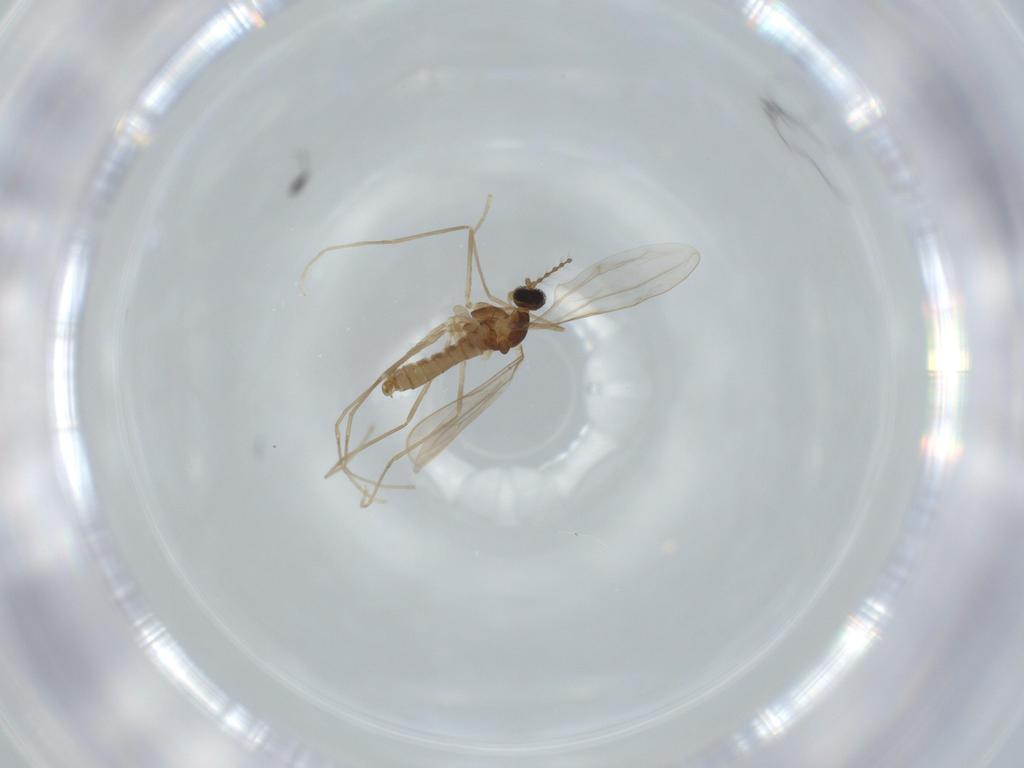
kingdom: Animalia
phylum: Arthropoda
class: Insecta
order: Diptera
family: Cecidomyiidae
